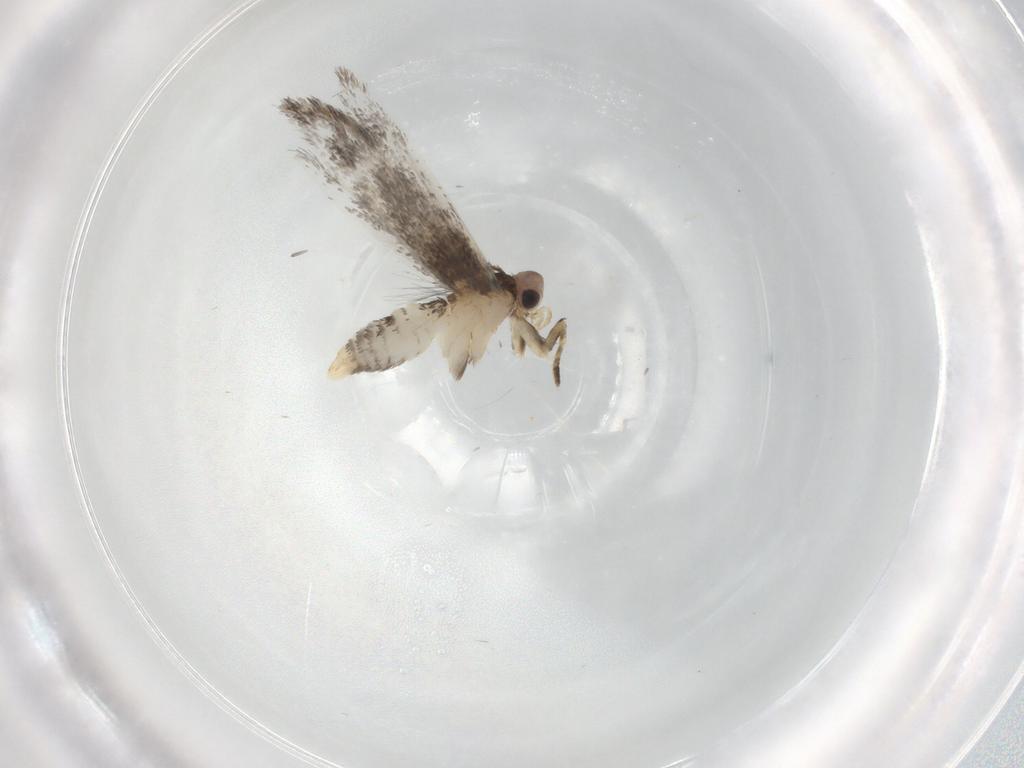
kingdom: Animalia
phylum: Arthropoda
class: Insecta
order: Lepidoptera
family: Tineidae
